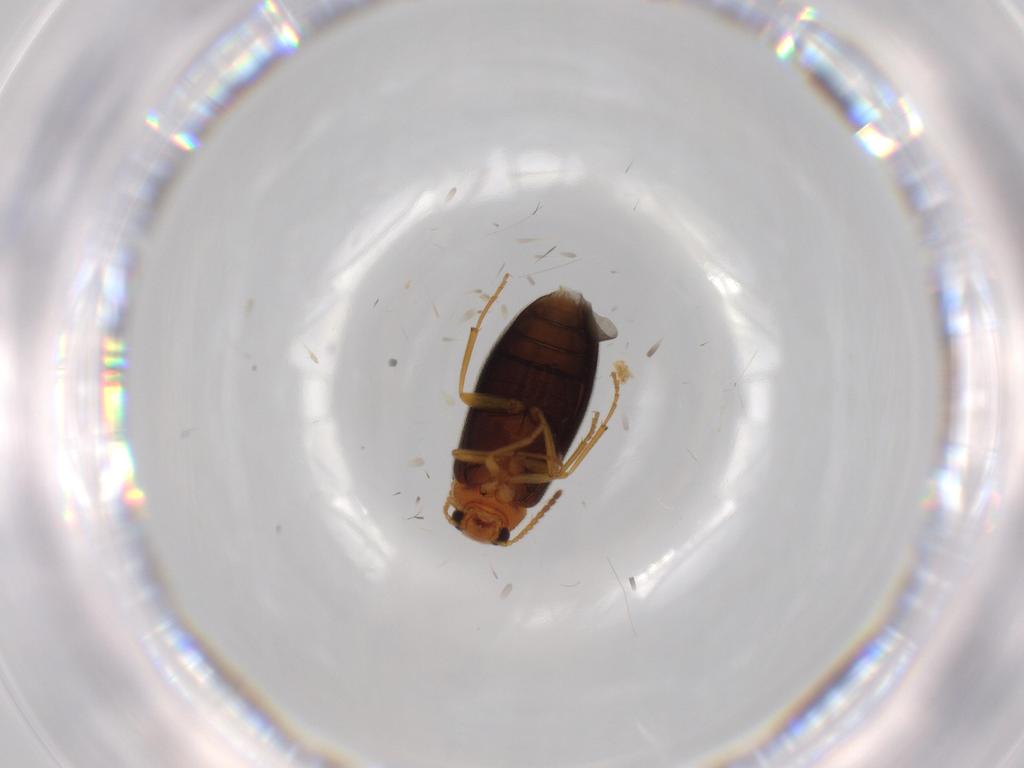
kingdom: Animalia
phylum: Arthropoda
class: Insecta
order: Coleoptera
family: Melandryidae
